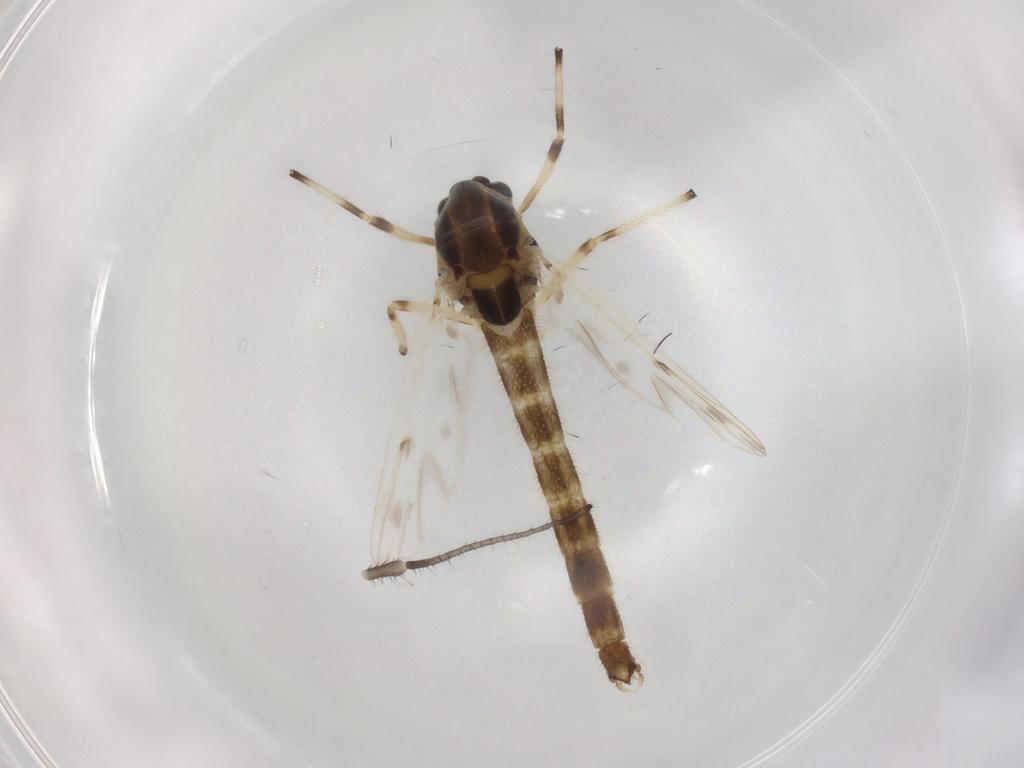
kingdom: Animalia
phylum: Arthropoda
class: Insecta
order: Diptera
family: Chironomidae
